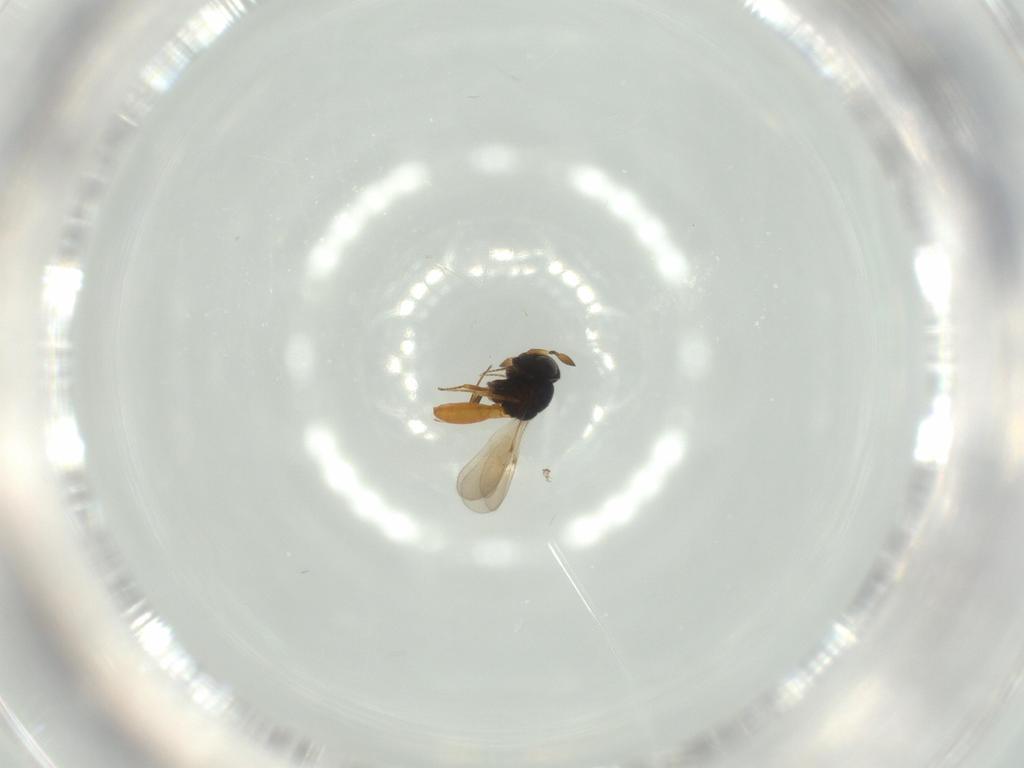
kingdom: Animalia
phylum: Arthropoda
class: Insecta
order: Hymenoptera
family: Scelionidae
